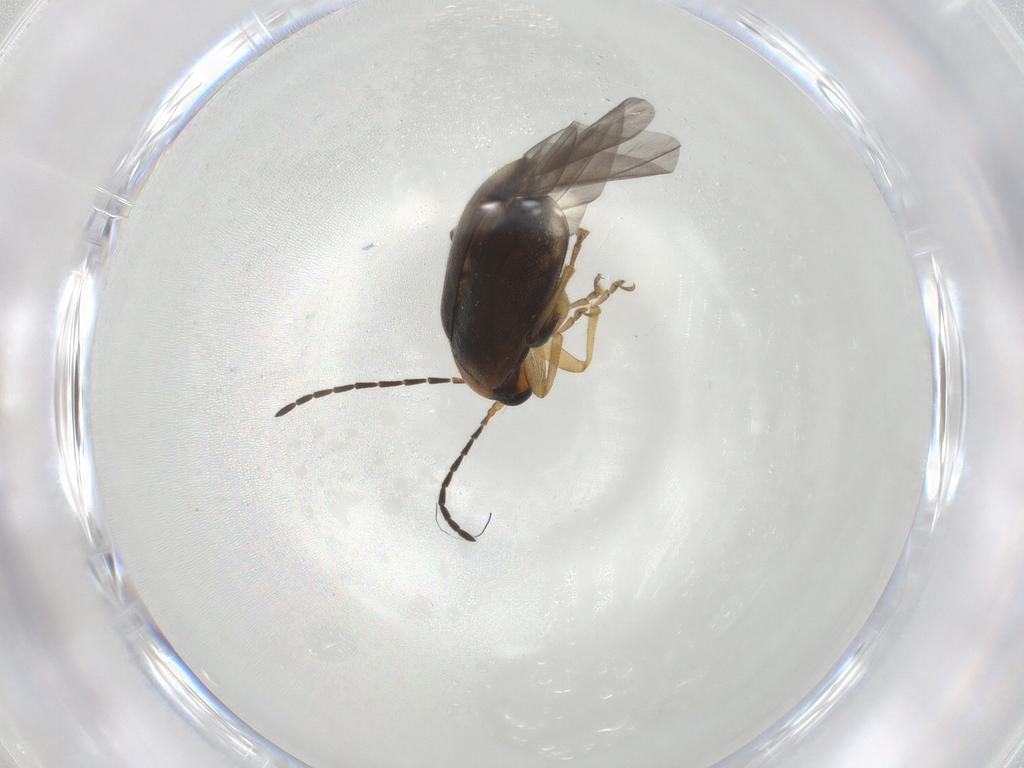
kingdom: Animalia
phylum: Arthropoda
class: Insecta
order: Coleoptera
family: Chrysomelidae
